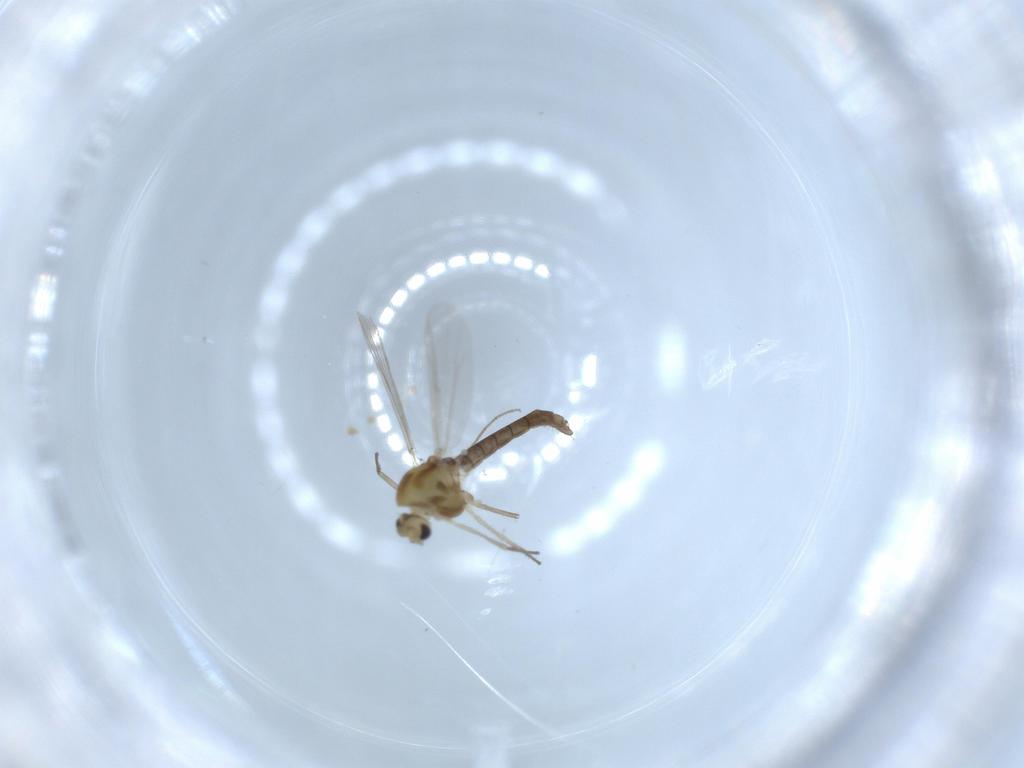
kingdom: Animalia
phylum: Arthropoda
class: Insecta
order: Diptera
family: Chironomidae
